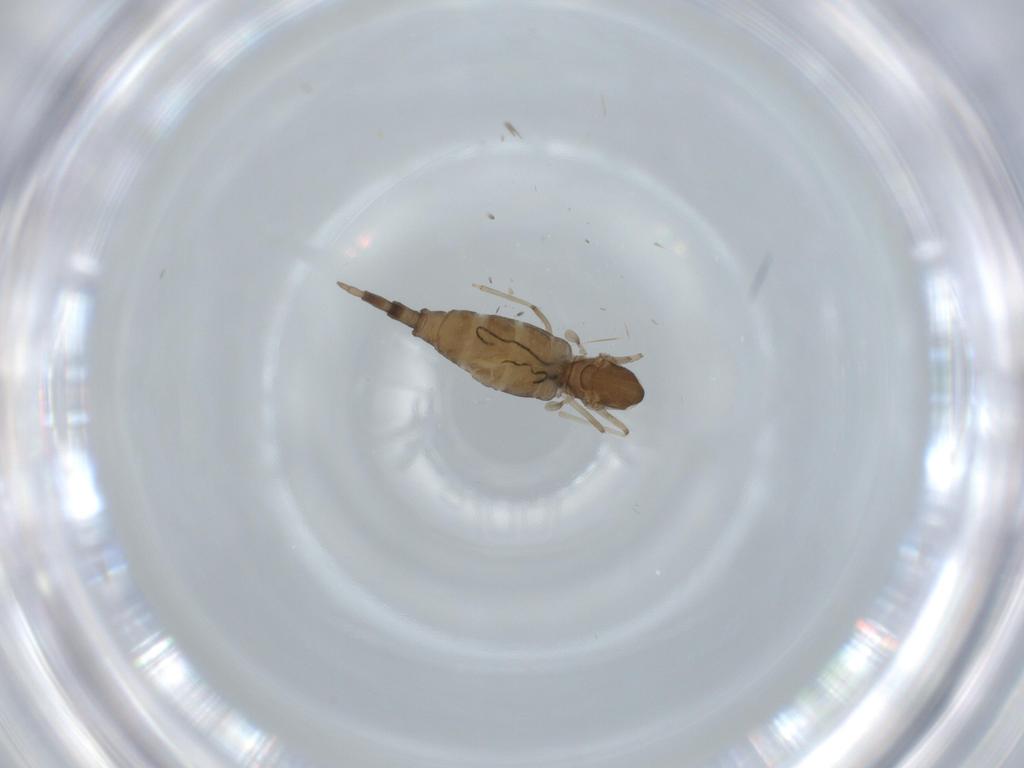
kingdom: Animalia
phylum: Arthropoda
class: Insecta
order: Diptera
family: Cecidomyiidae
